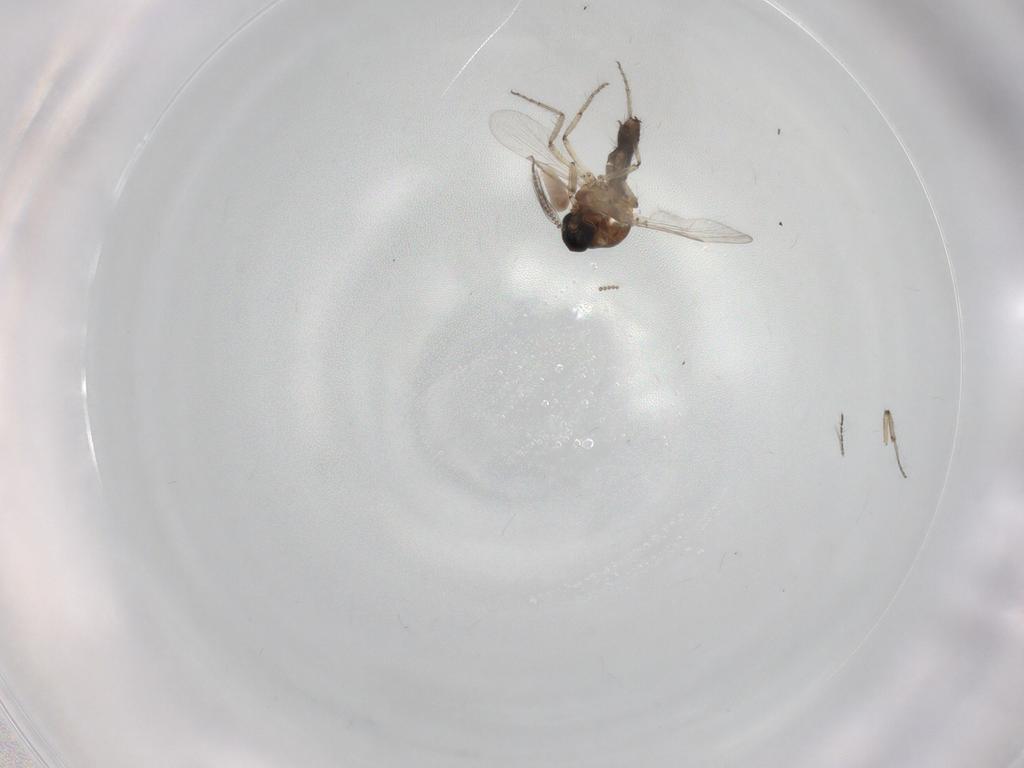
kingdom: Animalia
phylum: Arthropoda
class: Insecta
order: Diptera
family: Ceratopogonidae
